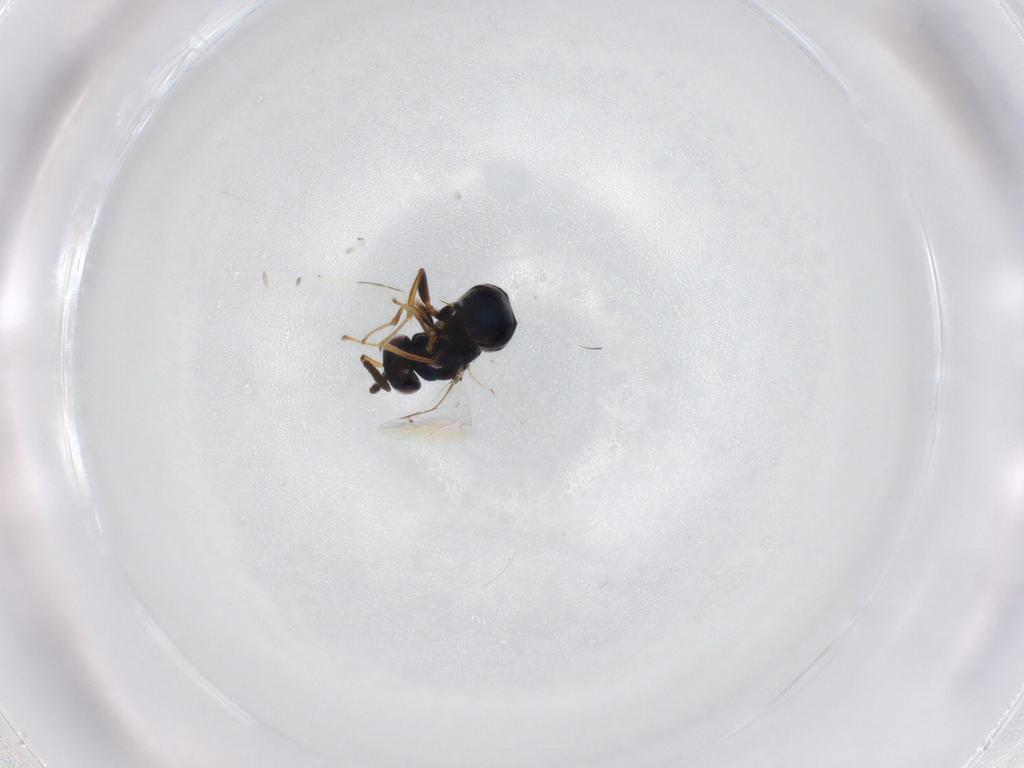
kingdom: Animalia
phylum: Arthropoda
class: Insecta
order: Hymenoptera
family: Pteromalidae
